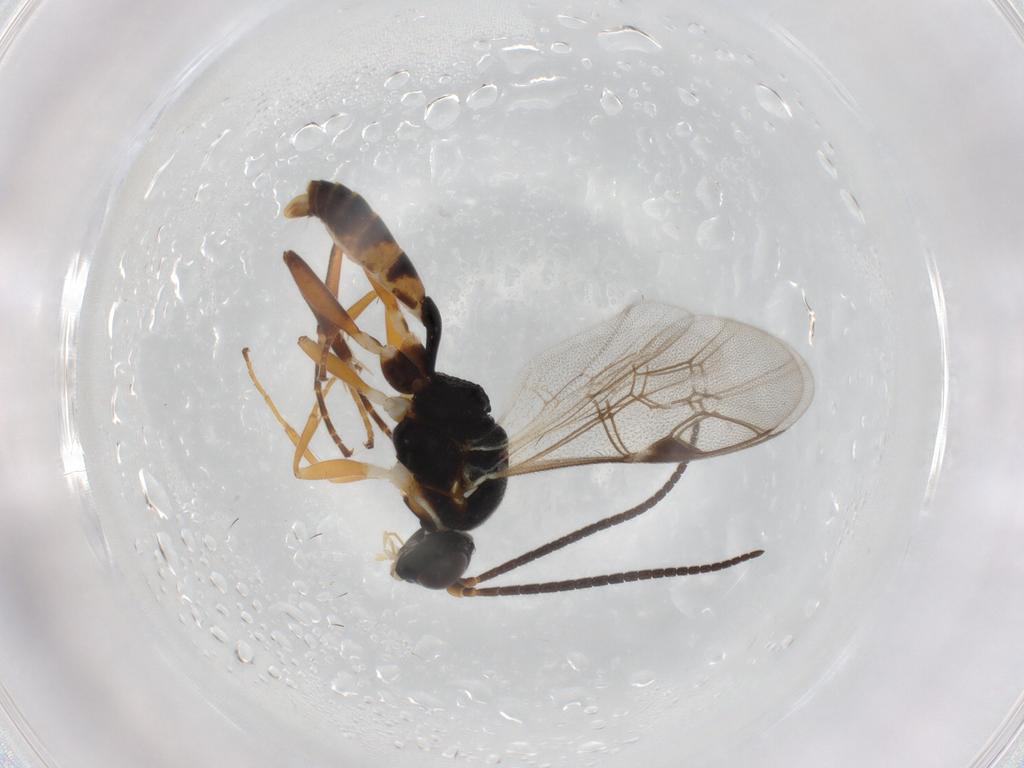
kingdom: Animalia
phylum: Arthropoda
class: Insecta
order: Hymenoptera
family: Ichneumonidae
